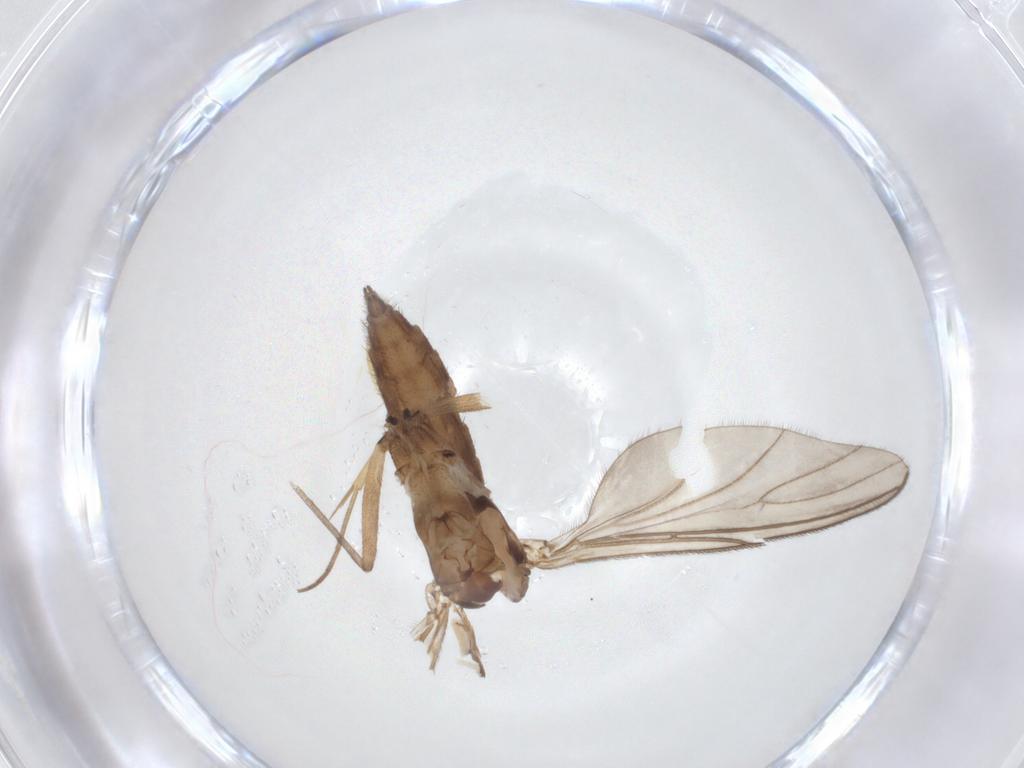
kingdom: Animalia
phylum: Arthropoda
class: Insecta
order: Diptera
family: Mycetophilidae
